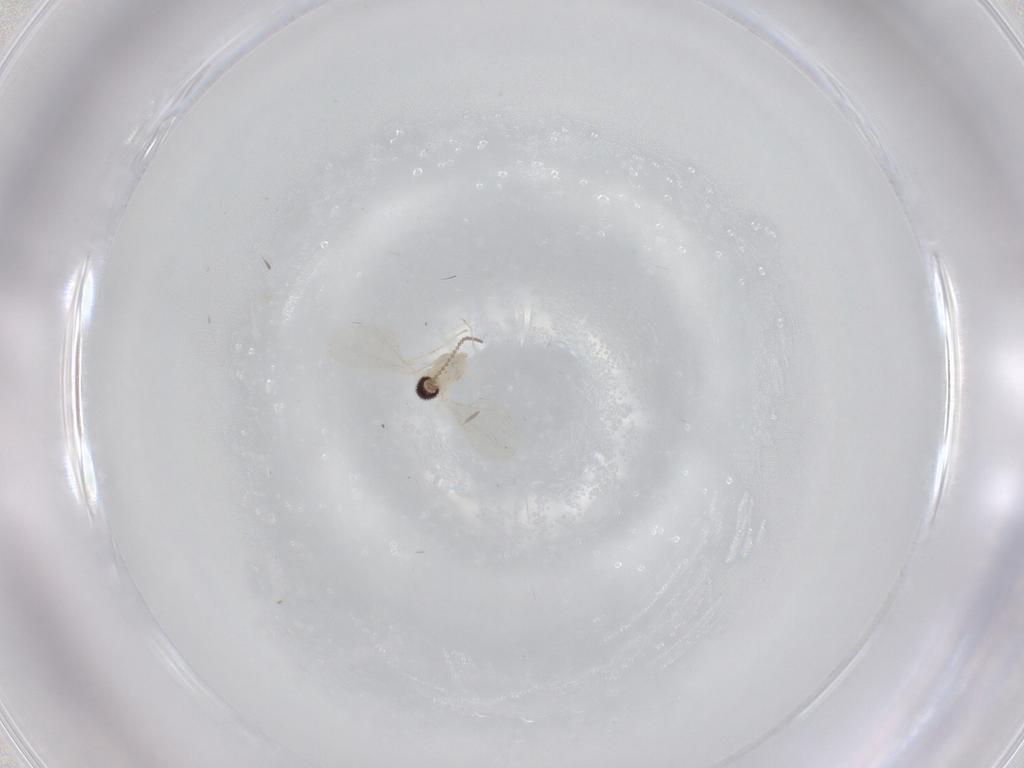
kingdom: Animalia
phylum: Arthropoda
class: Insecta
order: Diptera
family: Cecidomyiidae
